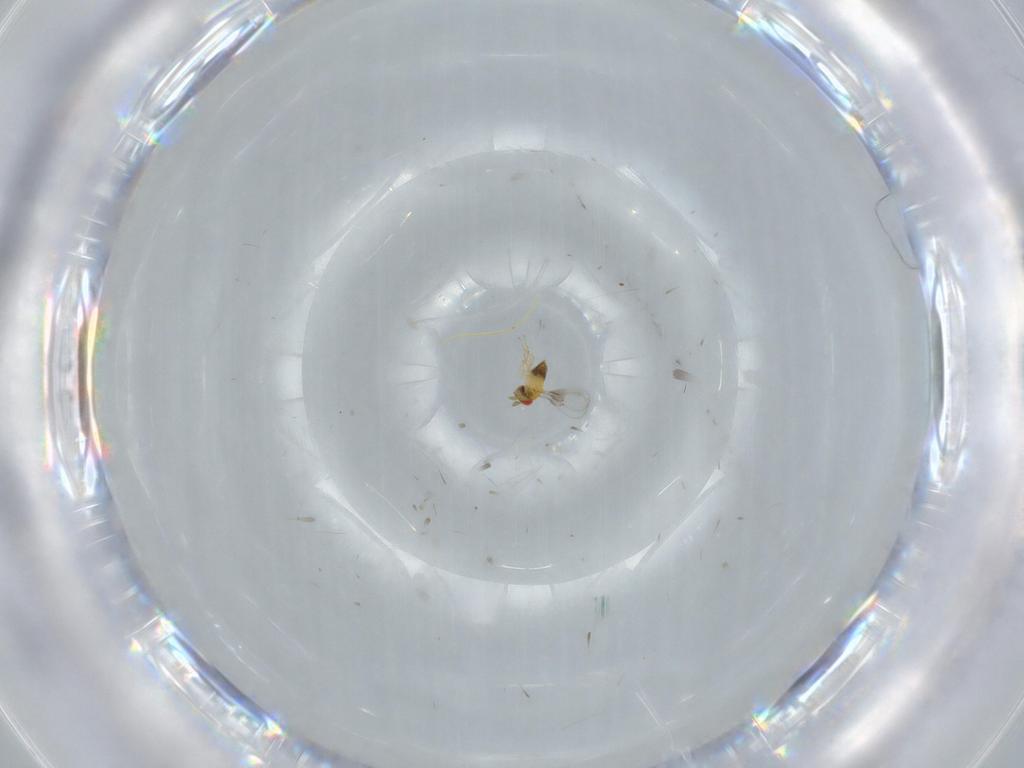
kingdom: Animalia
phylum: Arthropoda
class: Insecta
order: Hymenoptera
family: Trichogrammatidae
